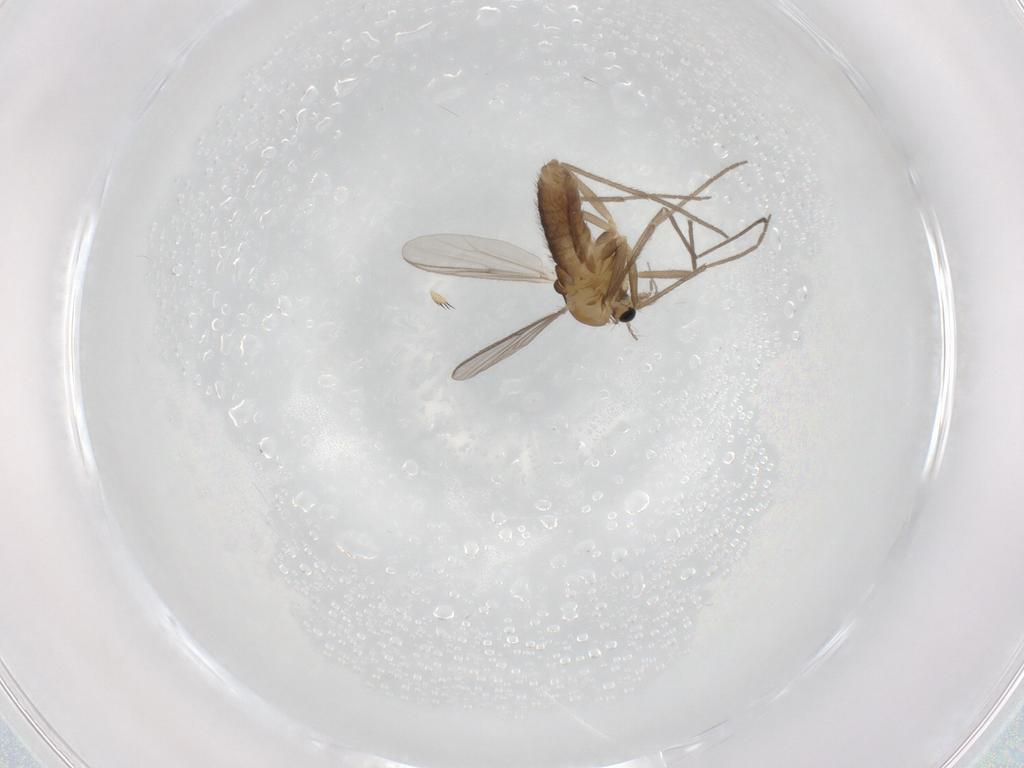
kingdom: Animalia
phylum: Arthropoda
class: Insecta
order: Diptera
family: Chironomidae
